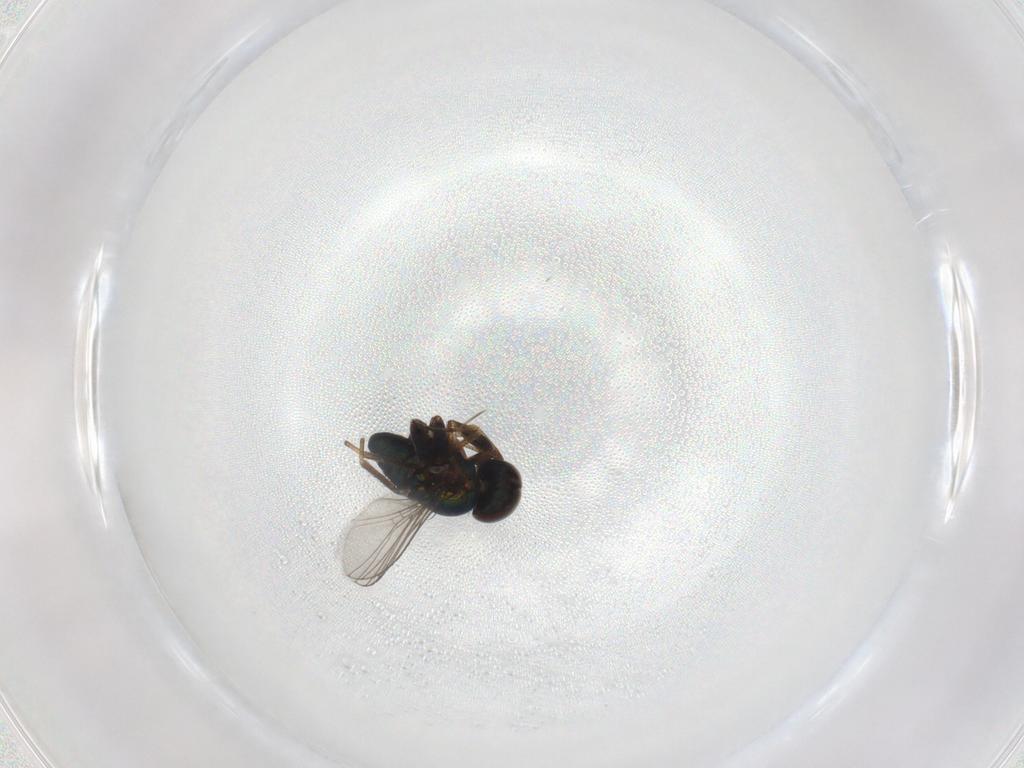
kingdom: Animalia
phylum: Arthropoda
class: Insecta
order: Diptera
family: Dolichopodidae
